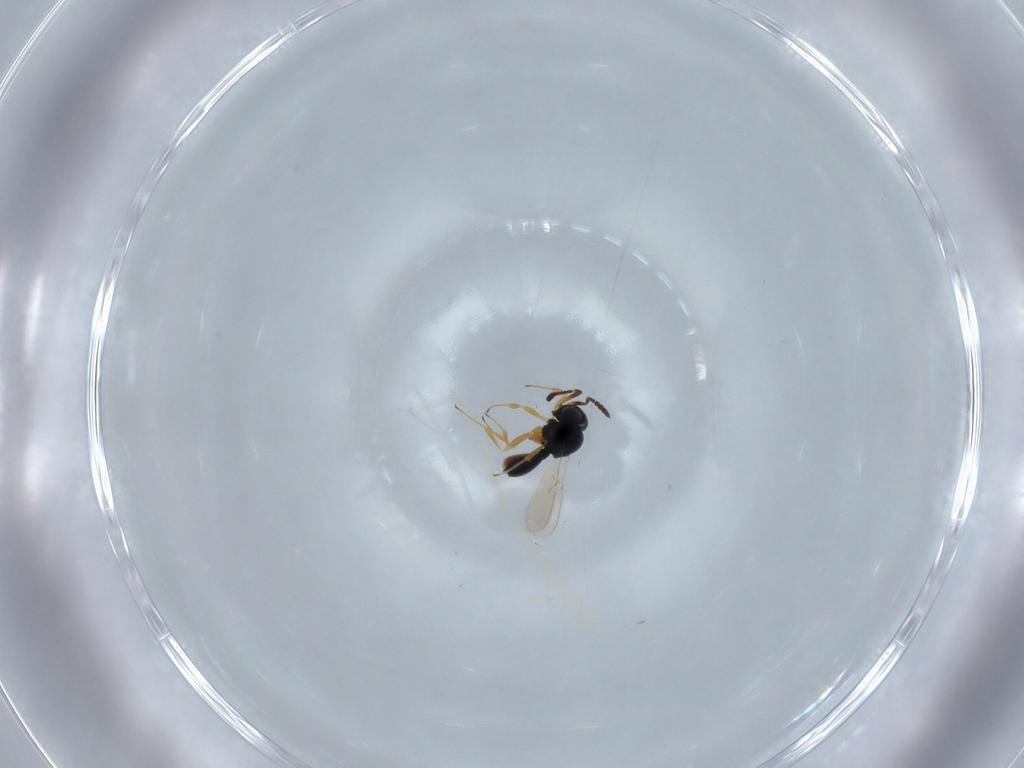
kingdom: Animalia
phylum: Arthropoda
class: Insecta
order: Hymenoptera
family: Scelionidae
